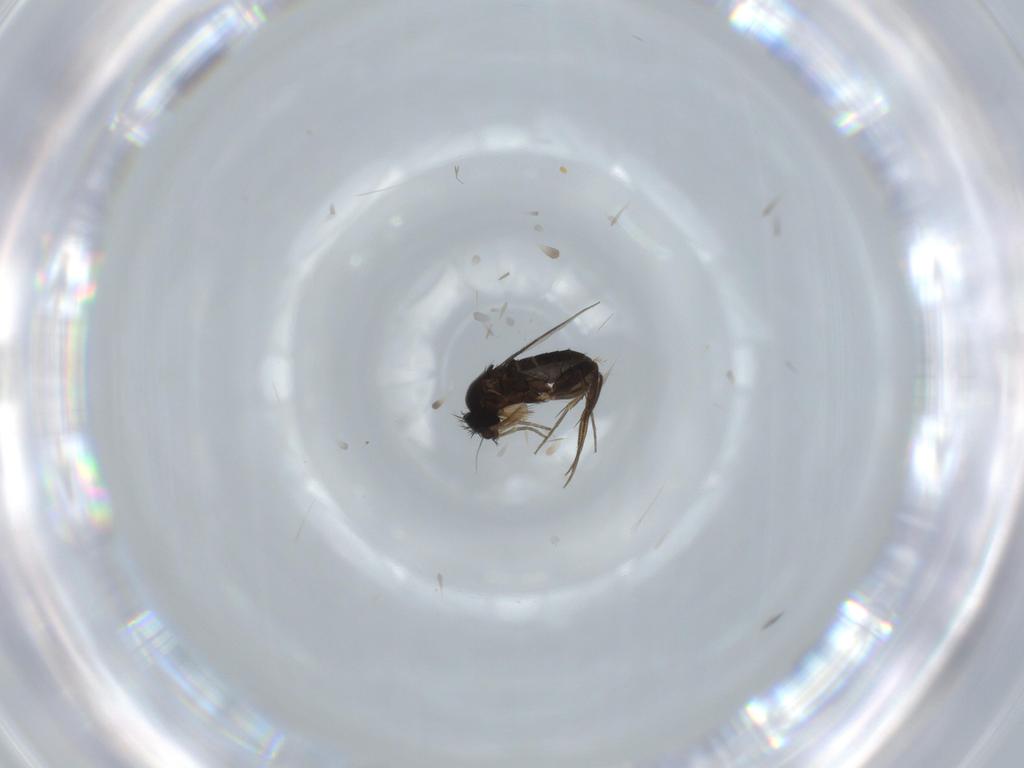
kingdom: Animalia
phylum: Arthropoda
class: Insecta
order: Diptera
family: Phoridae
